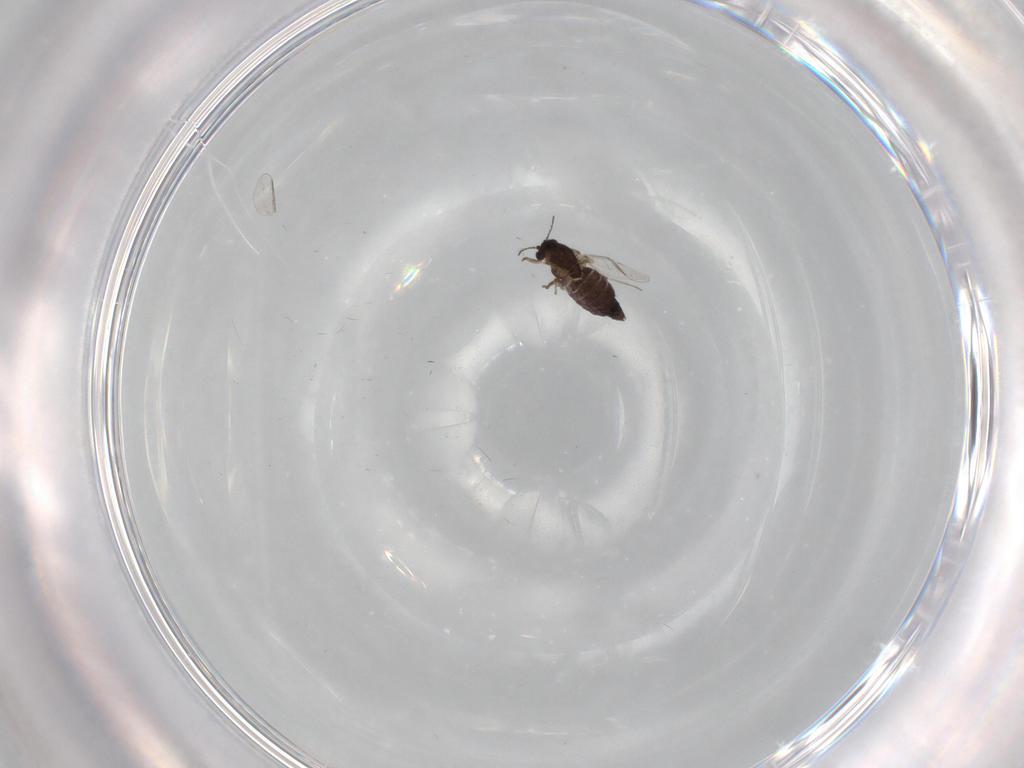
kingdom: Animalia
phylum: Arthropoda
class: Insecta
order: Diptera
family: Chironomidae
